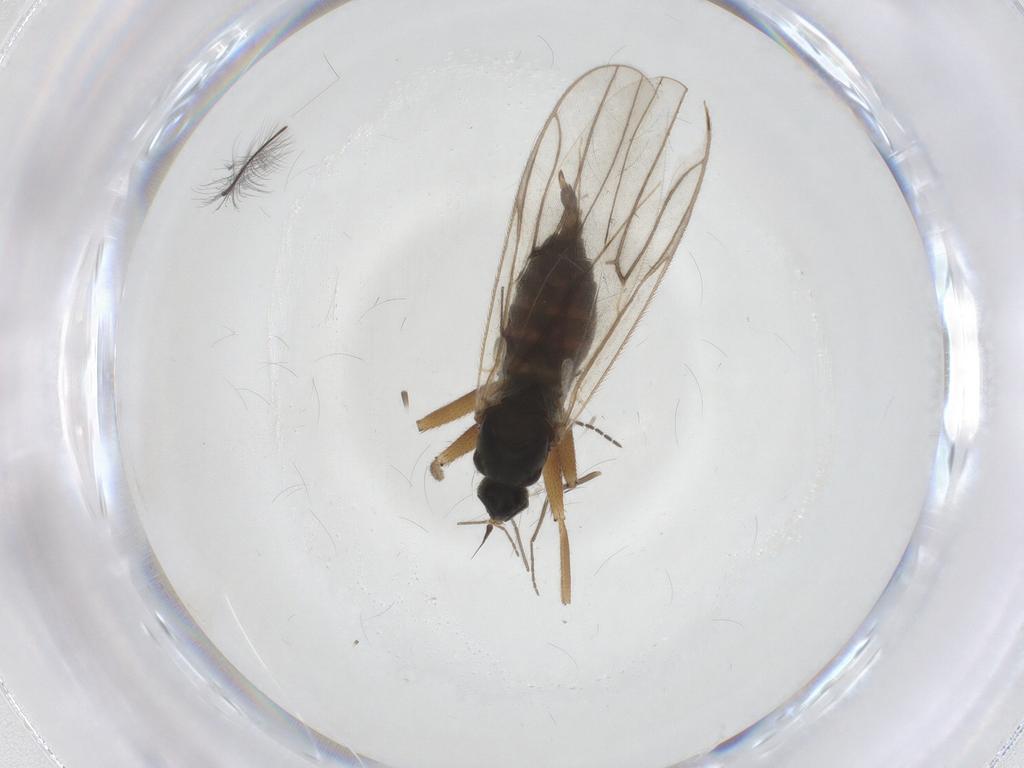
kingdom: Animalia
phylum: Arthropoda
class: Insecta
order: Diptera
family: Hybotidae
